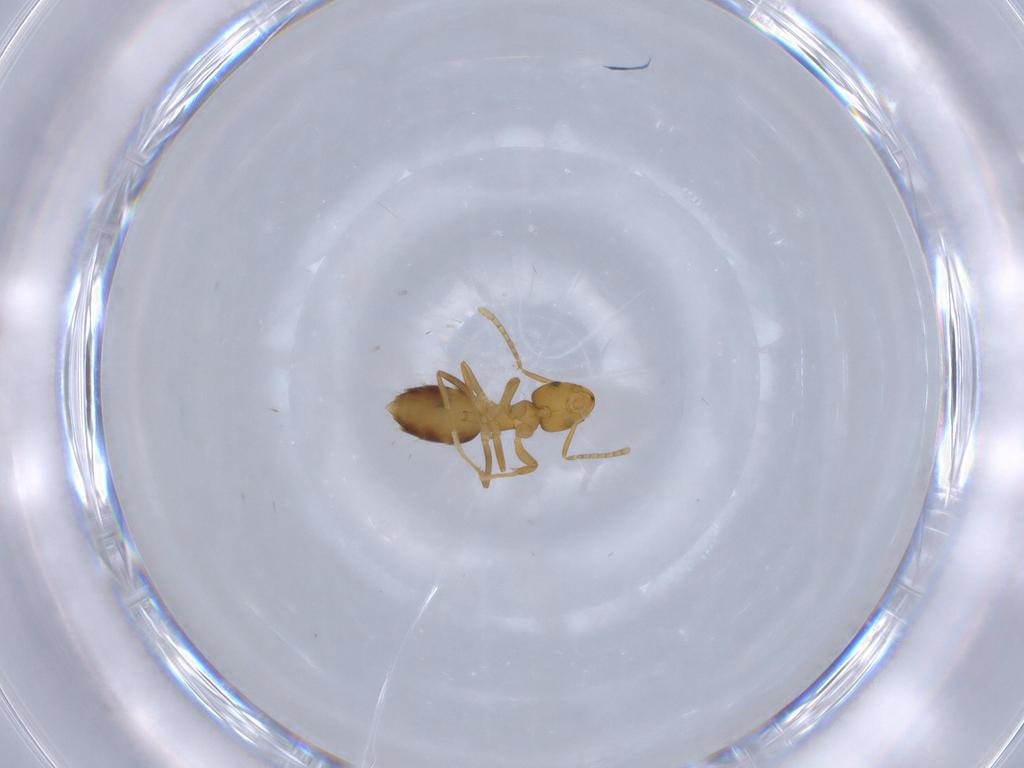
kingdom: Animalia
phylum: Arthropoda
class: Insecta
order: Hymenoptera
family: Formicidae
